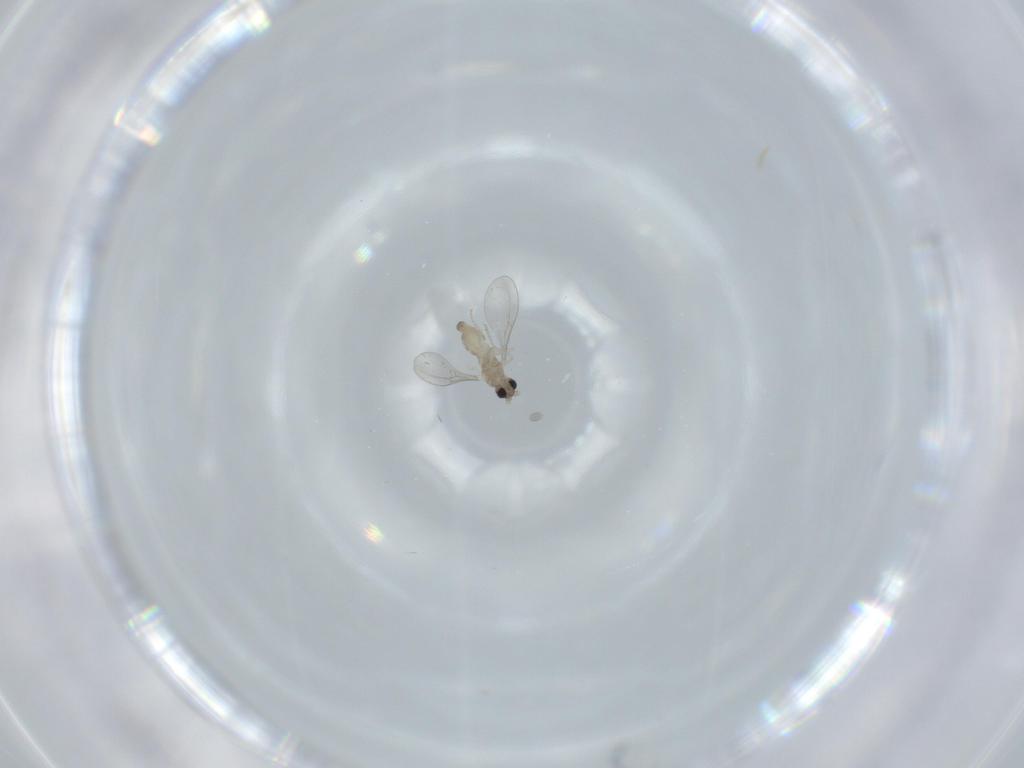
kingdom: Animalia
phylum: Arthropoda
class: Insecta
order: Diptera
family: Cecidomyiidae
